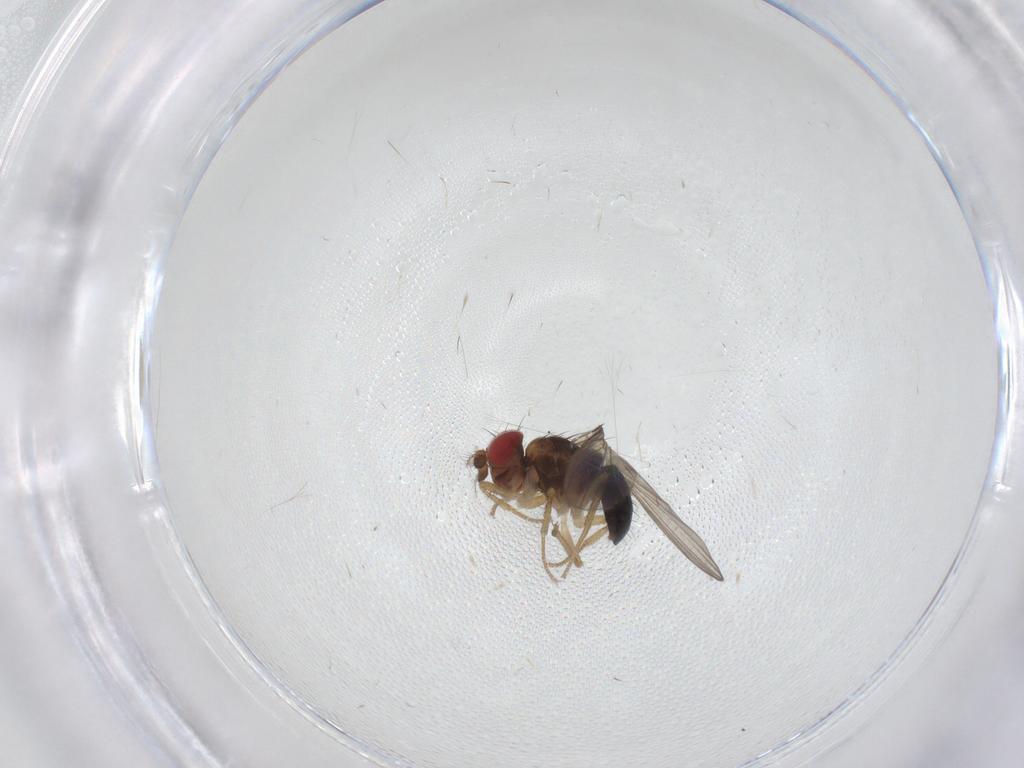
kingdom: Animalia
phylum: Arthropoda
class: Insecta
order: Diptera
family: Drosophilidae
